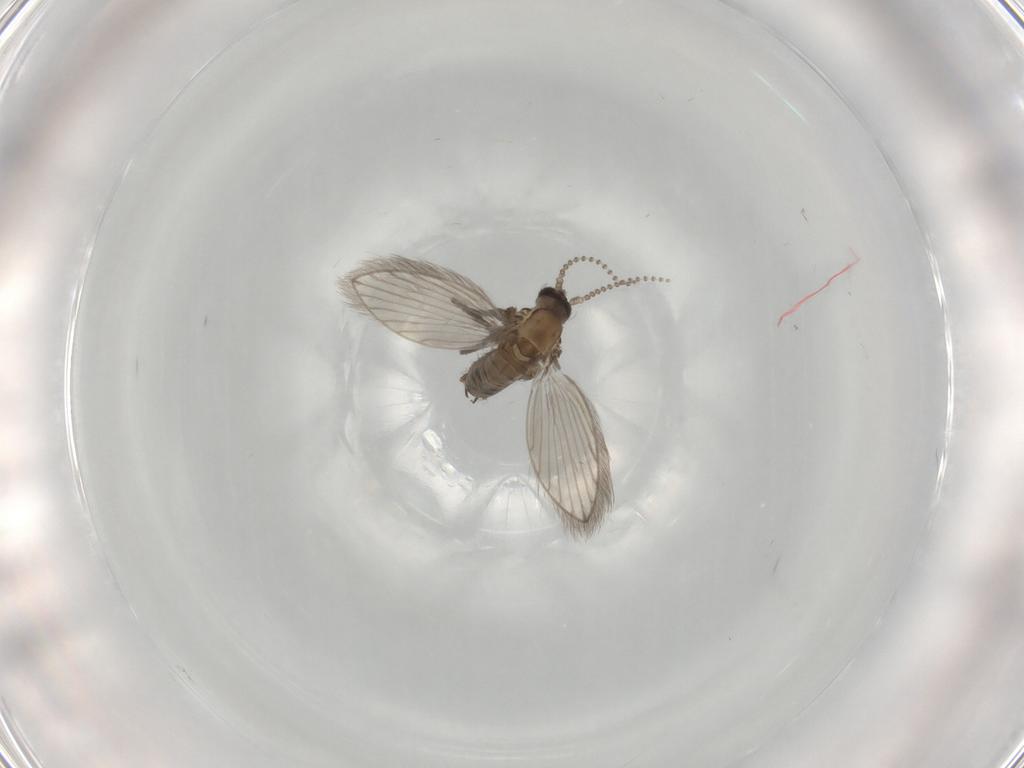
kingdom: Animalia
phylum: Arthropoda
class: Insecta
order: Diptera
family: Psychodidae
